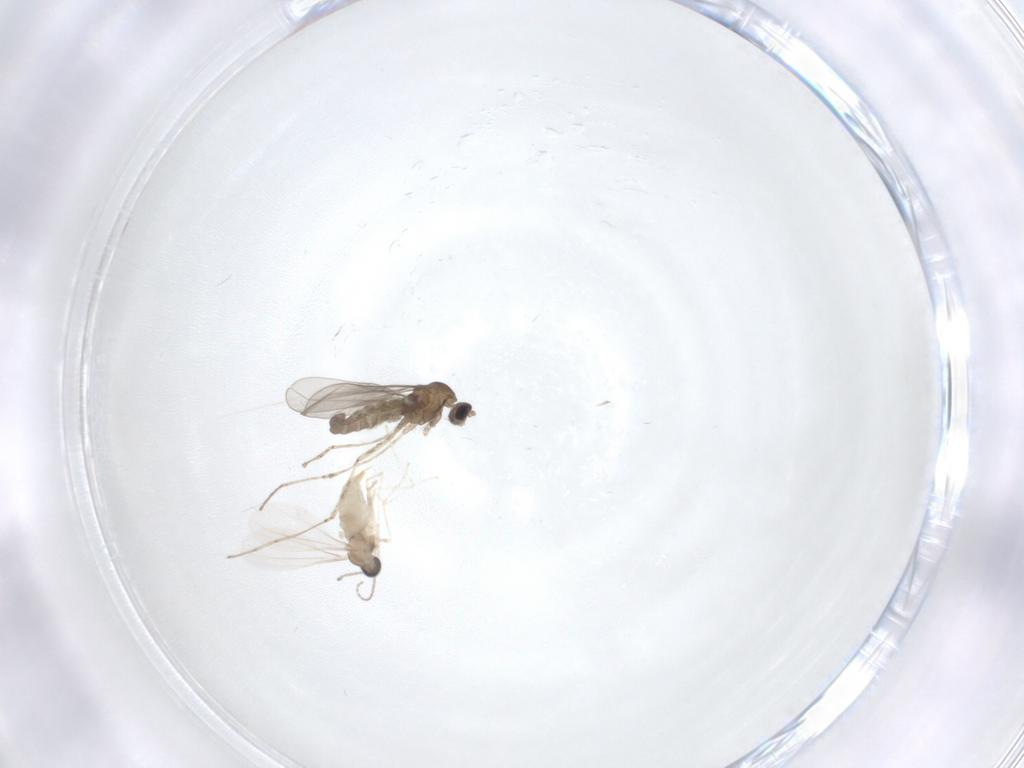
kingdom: Animalia
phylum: Arthropoda
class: Insecta
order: Diptera
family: Cecidomyiidae
